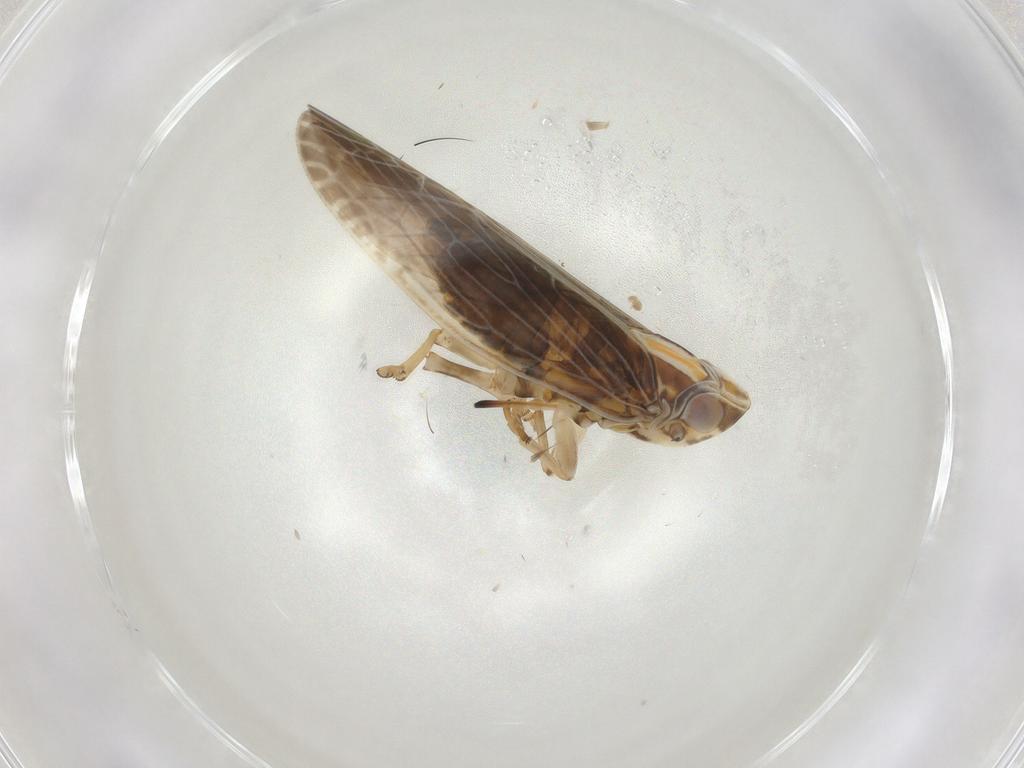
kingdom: Animalia
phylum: Arthropoda
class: Insecta
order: Hemiptera
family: Achilidae
